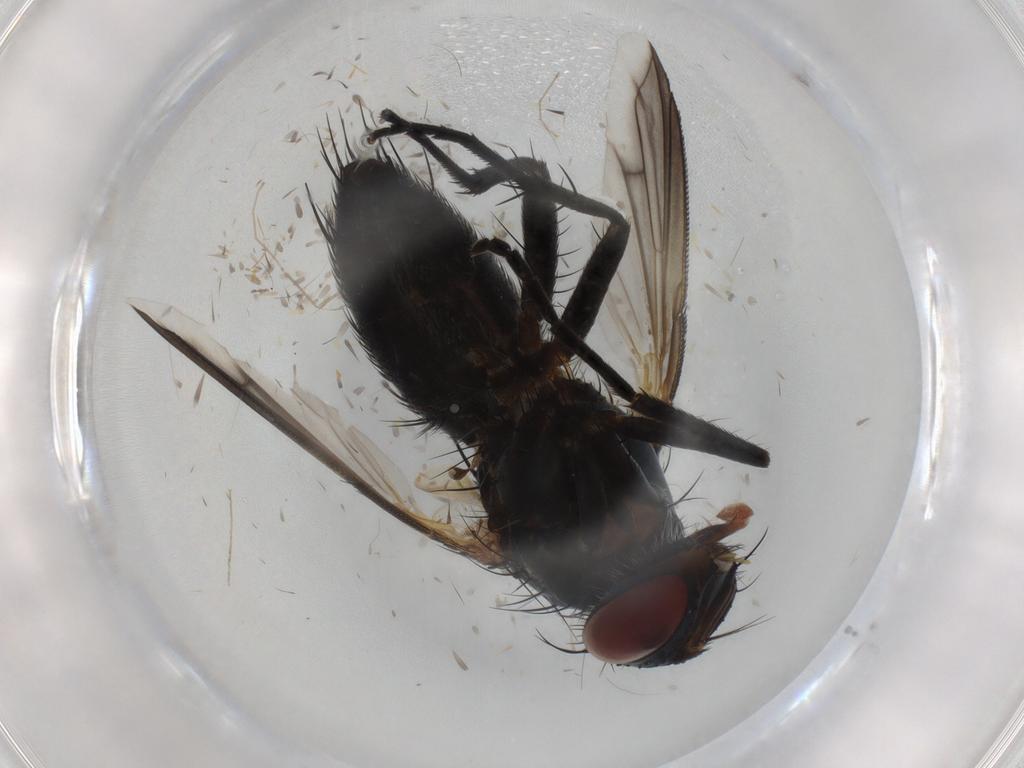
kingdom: Animalia
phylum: Arthropoda
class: Insecta
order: Diptera
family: Tachinidae
